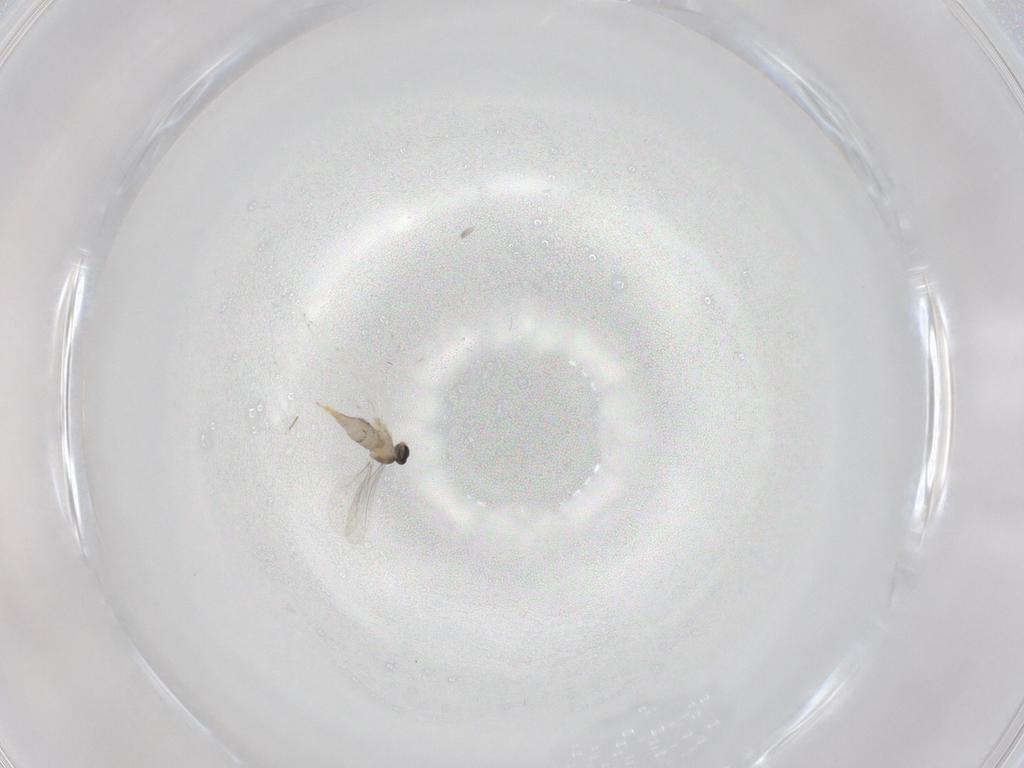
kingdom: Animalia
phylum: Arthropoda
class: Insecta
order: Diptera
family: Cecidomyiidae
